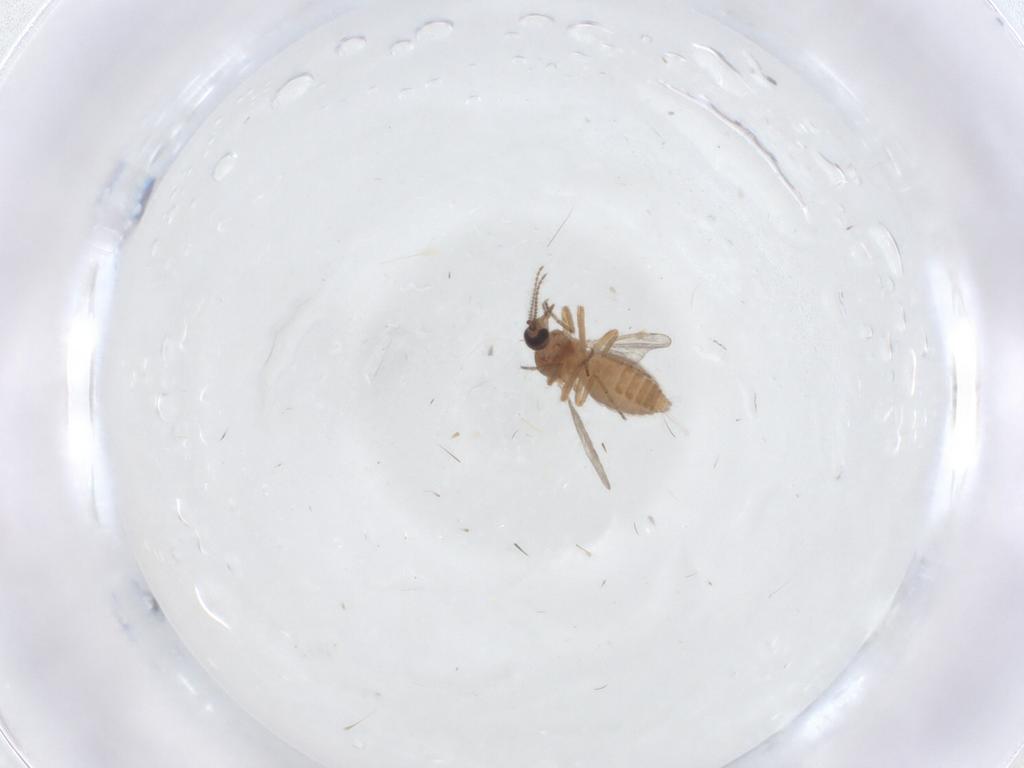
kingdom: Animalia
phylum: Arthropoda
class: Insecta
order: Diptera
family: Ceratopogonidae
